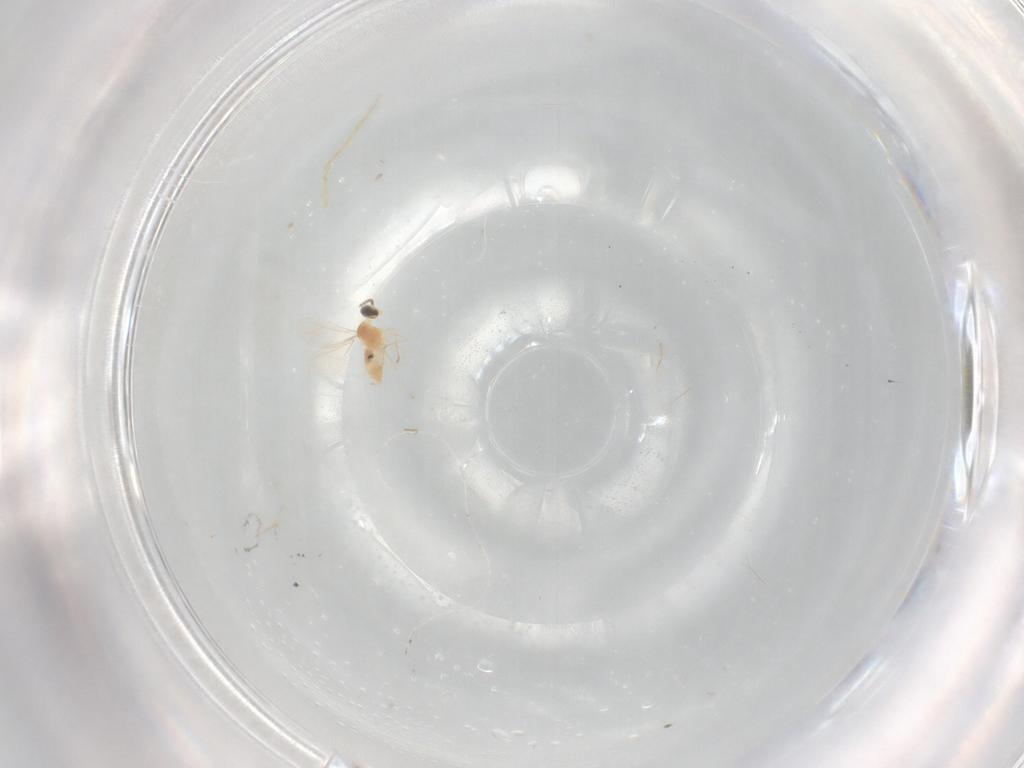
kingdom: Animalia
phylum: Arthropoda
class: Insecta
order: Diptera
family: Cecidomyiidae
